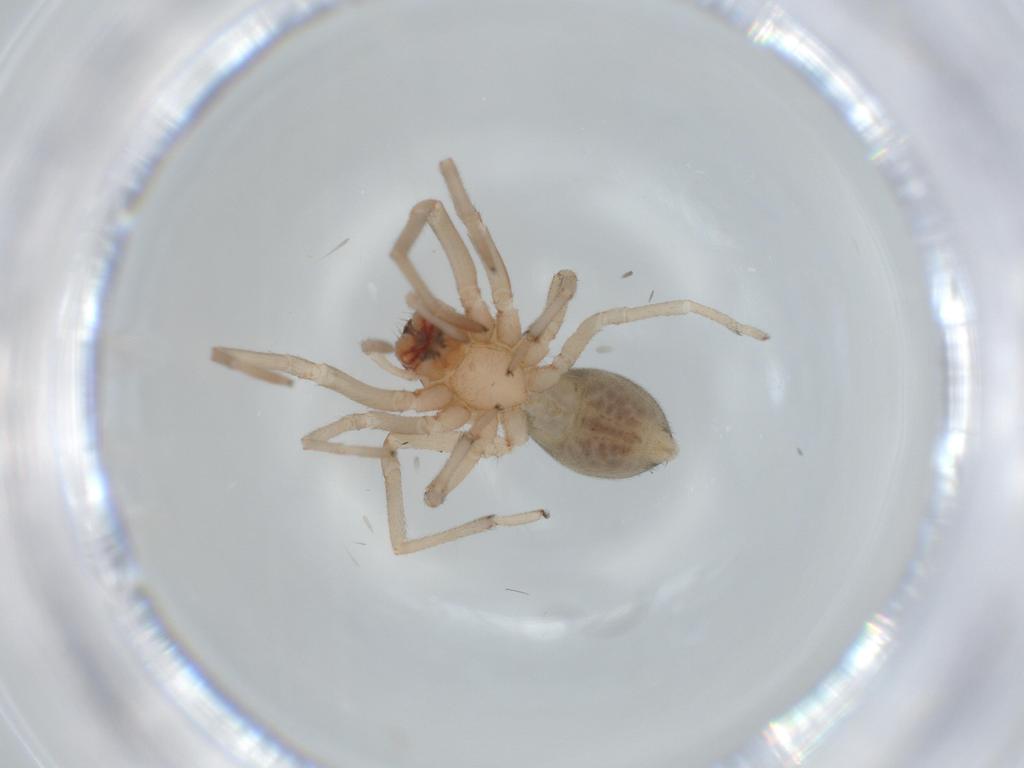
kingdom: Animalia
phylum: Arthropoda
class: Arachnida
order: Araneae
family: Trachelidae
